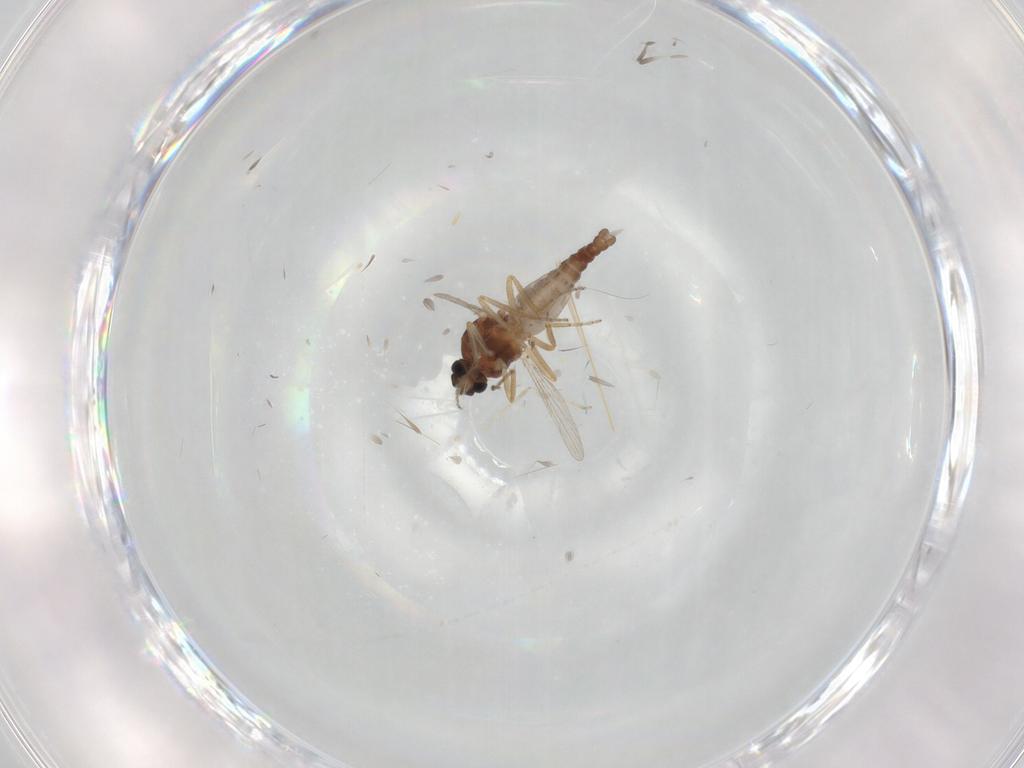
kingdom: Animalia
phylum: Arthropoda
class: Insecta
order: Diptera
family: Ceratopogonidae
